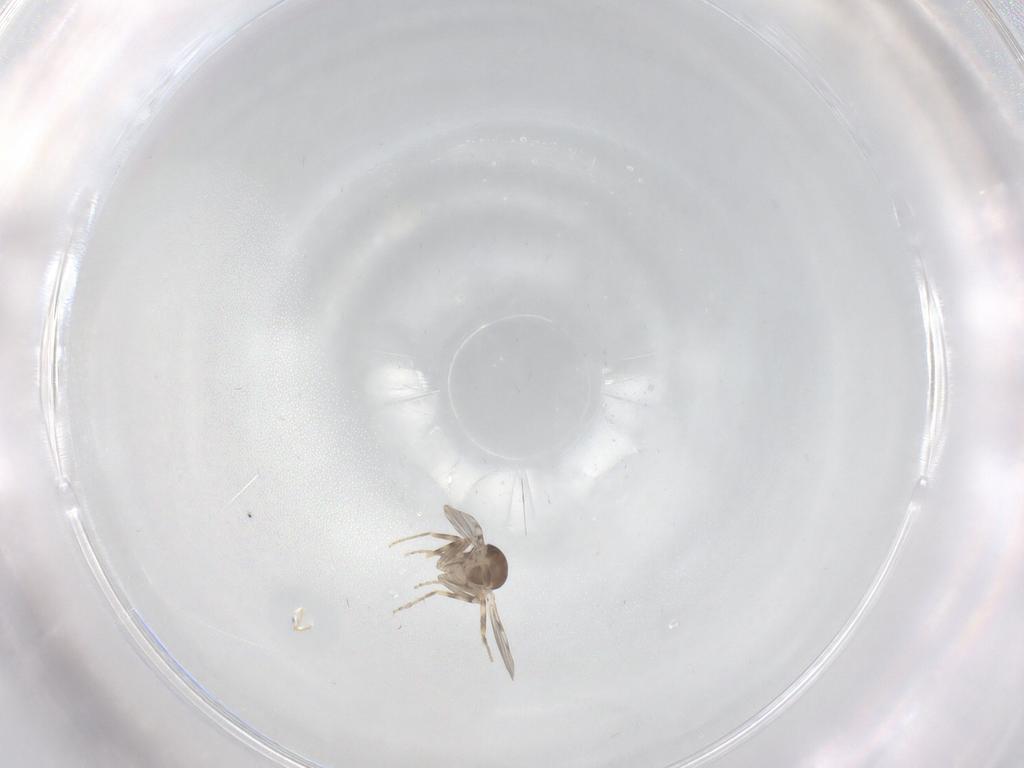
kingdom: Animalia
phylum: Arthropoda
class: Insecta
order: Diptera
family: Ceratopogonidae
